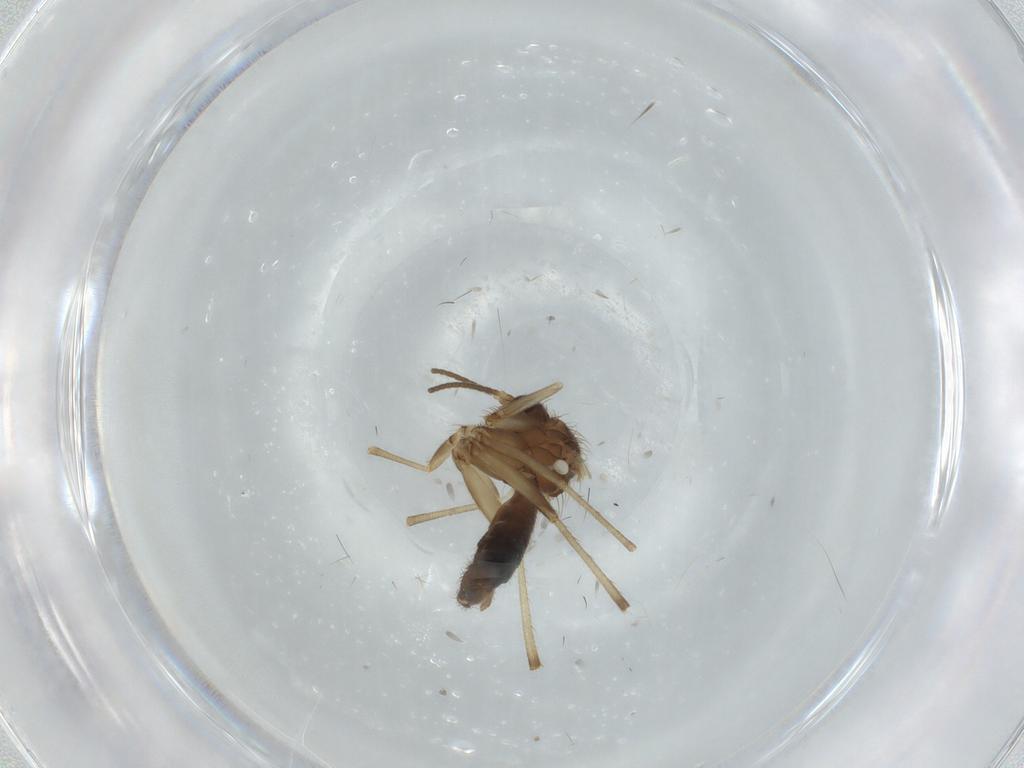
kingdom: Animalia
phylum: Arthropoda
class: Insecta
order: Diptera
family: Mycetophilidae
